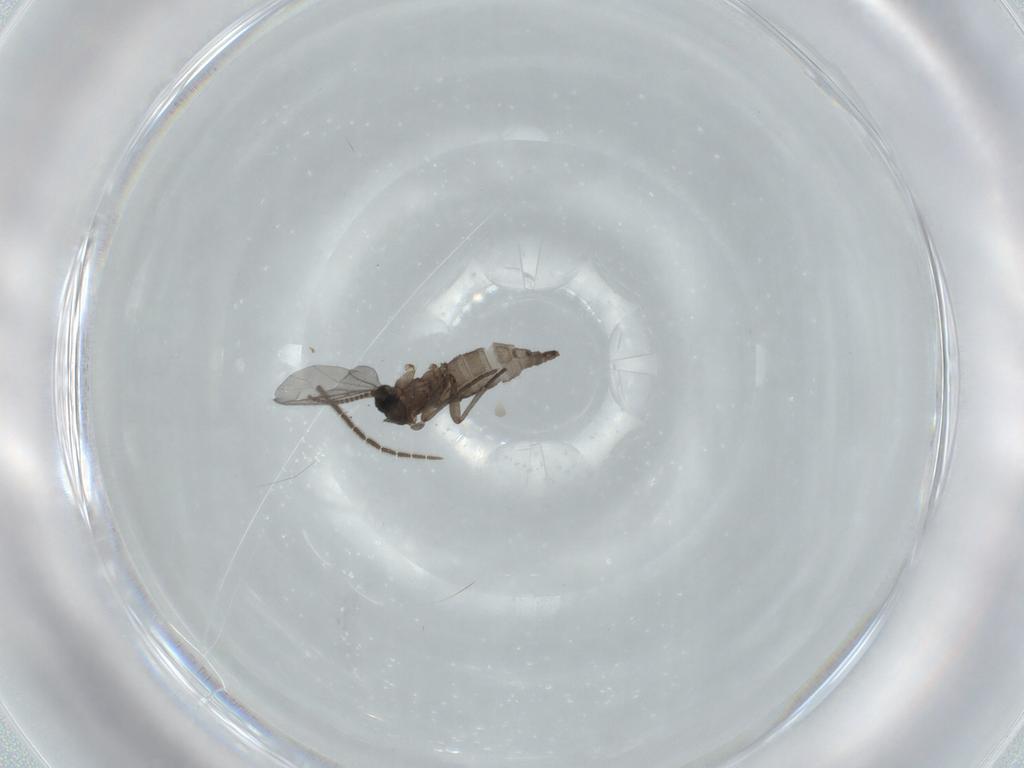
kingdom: Animalia
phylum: Arthropoda
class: Insecta
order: Diptera
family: Sciaridae
